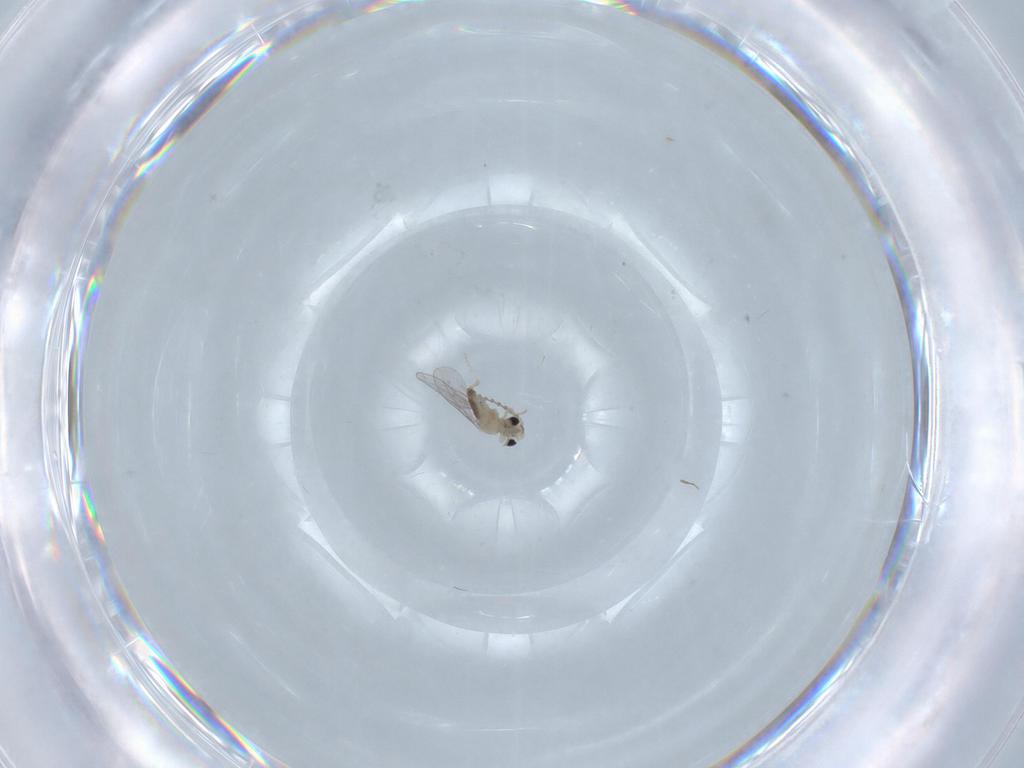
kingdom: Animalia
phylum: Arthropoda
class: Insecta
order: Diptera
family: Chironomidae
